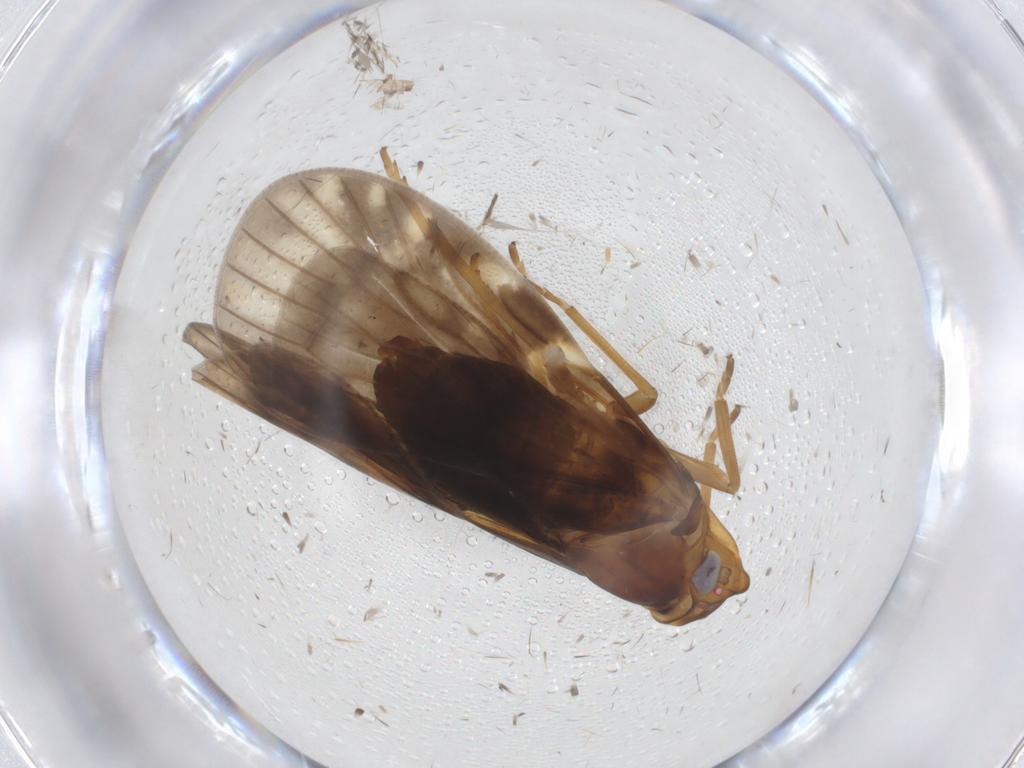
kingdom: Animalia
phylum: Arthropoda
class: Insecta
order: Hemiptera
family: Cixiidae
